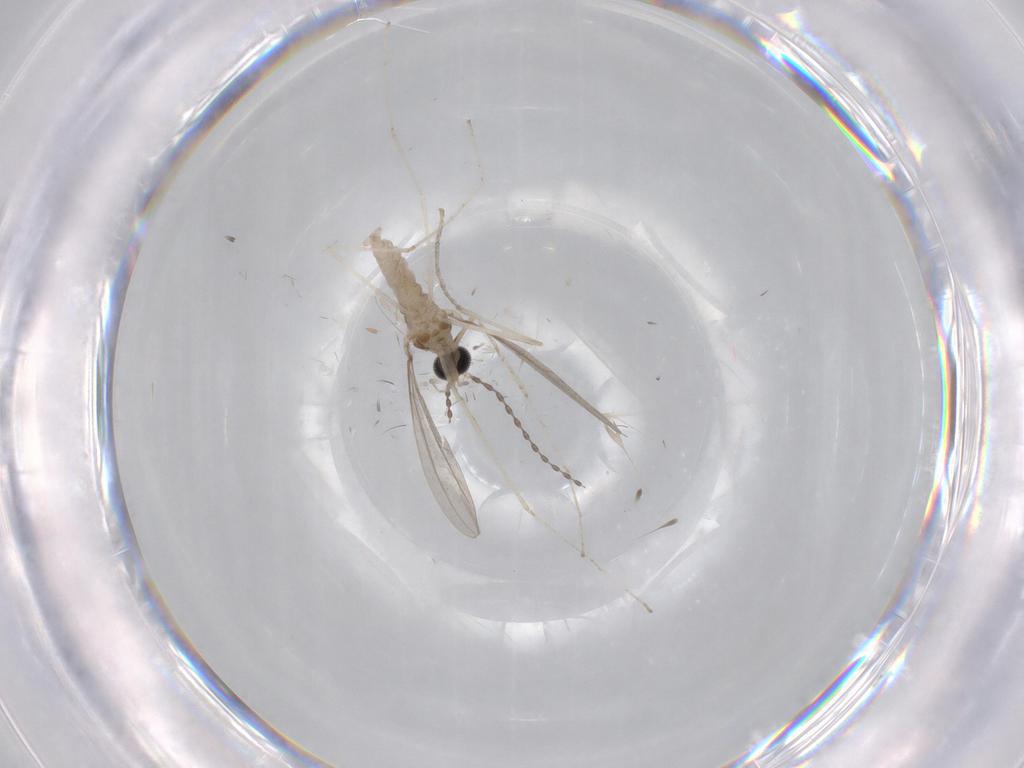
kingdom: Animalia
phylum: Arthropoda
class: Insecta
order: Diptera
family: Cecidomyiidae
